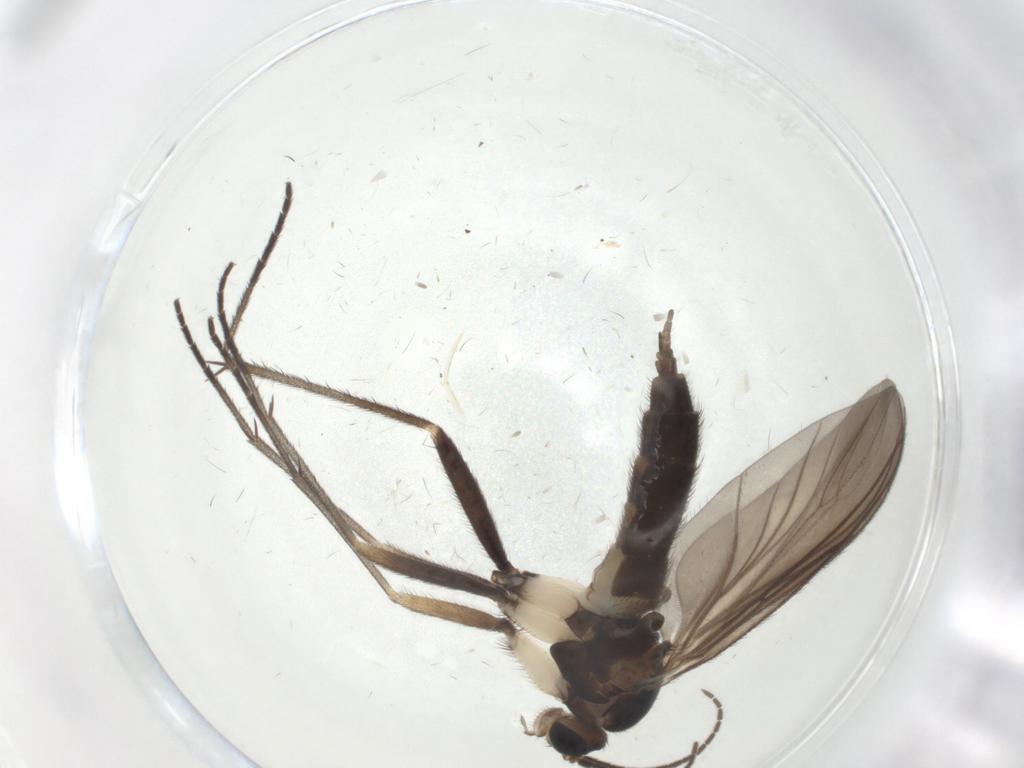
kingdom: Animalia
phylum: Arthropoda
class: Insecta
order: Diptera
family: Sciaridae
